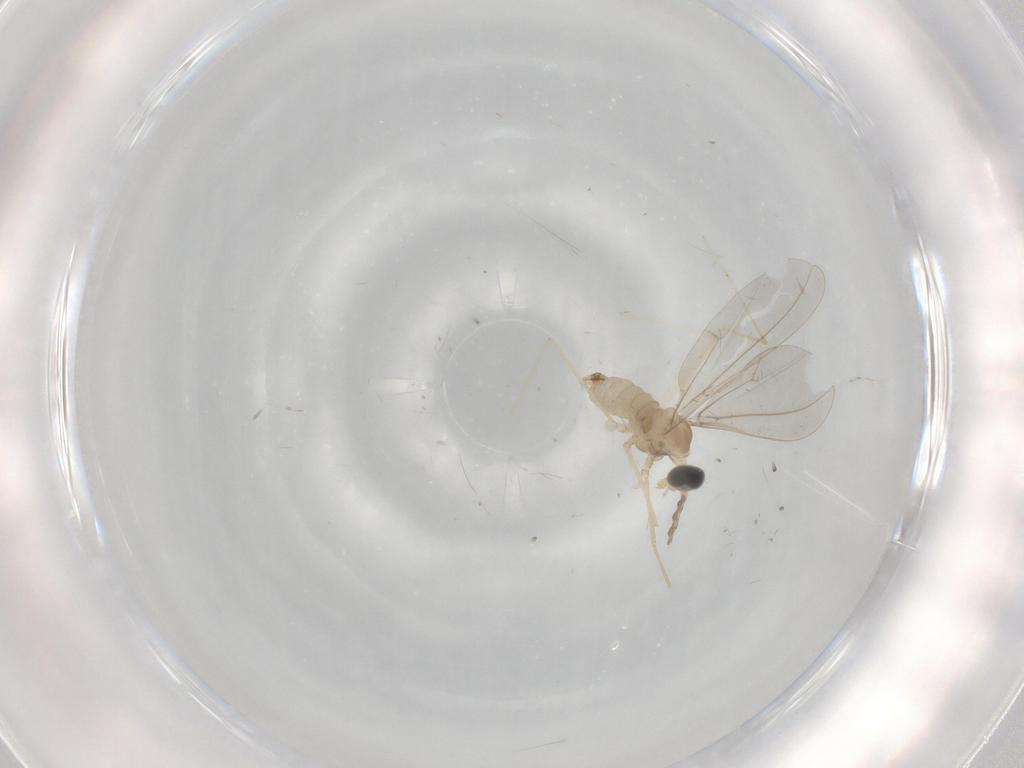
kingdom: Animalia
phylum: Arthropoda
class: Insecta
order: Diptera
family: Cecidomyiidae
